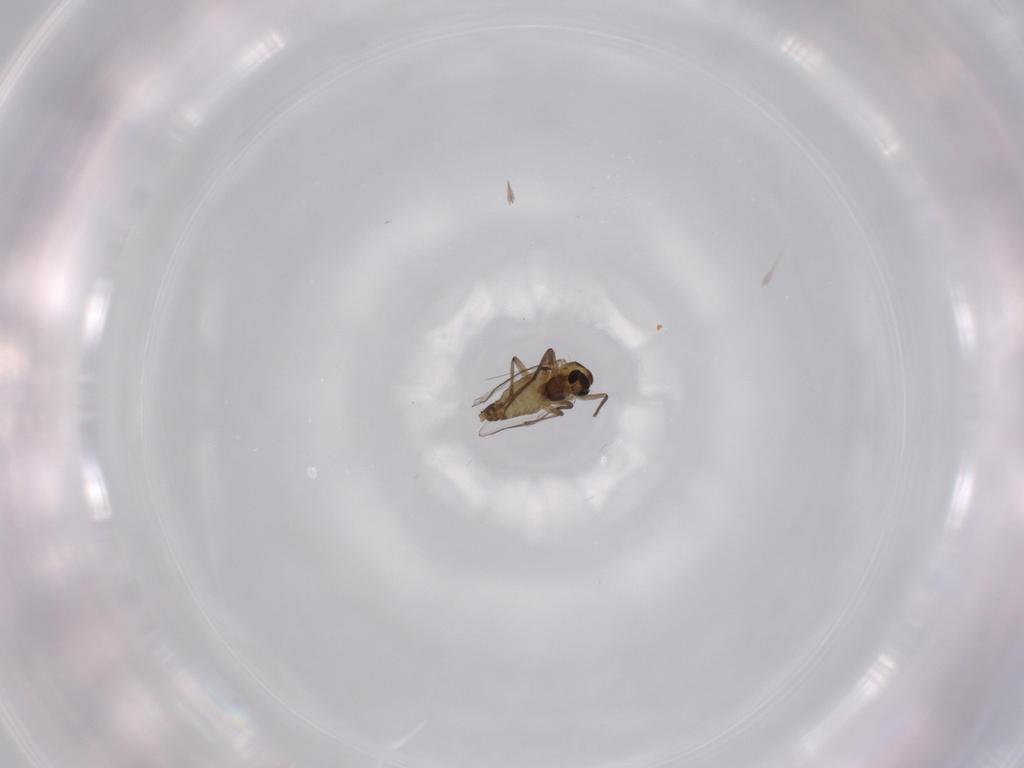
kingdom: Animalia
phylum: Arthropoda
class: Insecta
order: Diptera
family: Chironomidae
